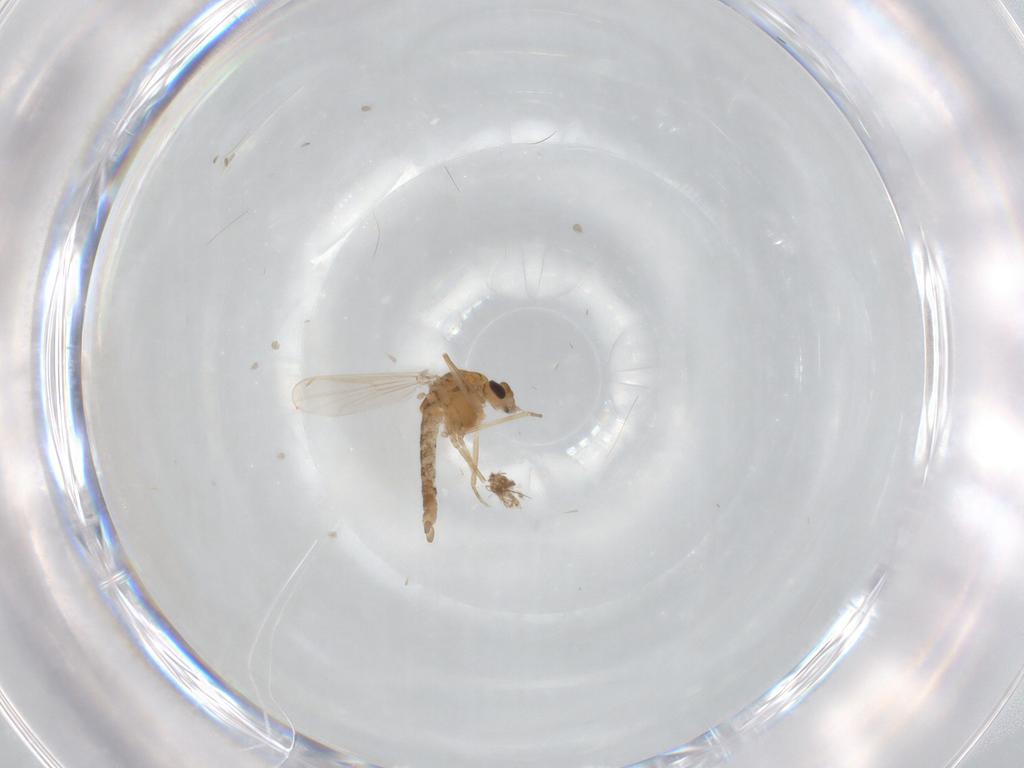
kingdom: Animalia
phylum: Arthropoda
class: Insecta
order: Diptera
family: Chironomidae
